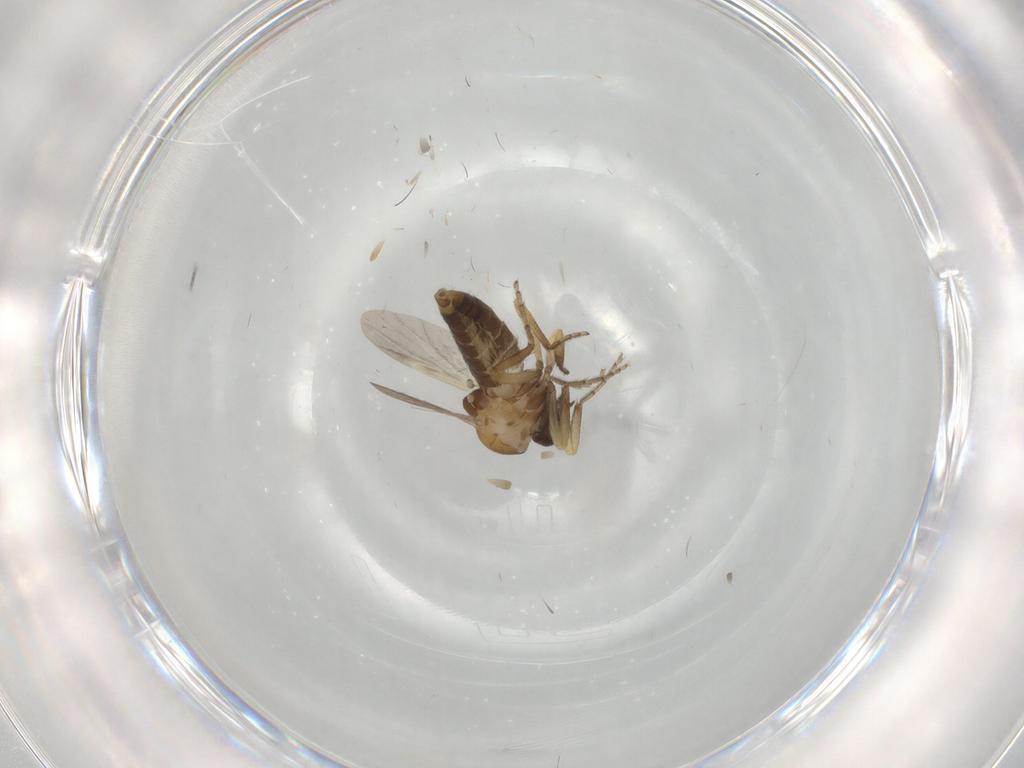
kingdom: Animalia
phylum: Arthropoda
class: Insecta
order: Diptera
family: Ceratopogonidae
